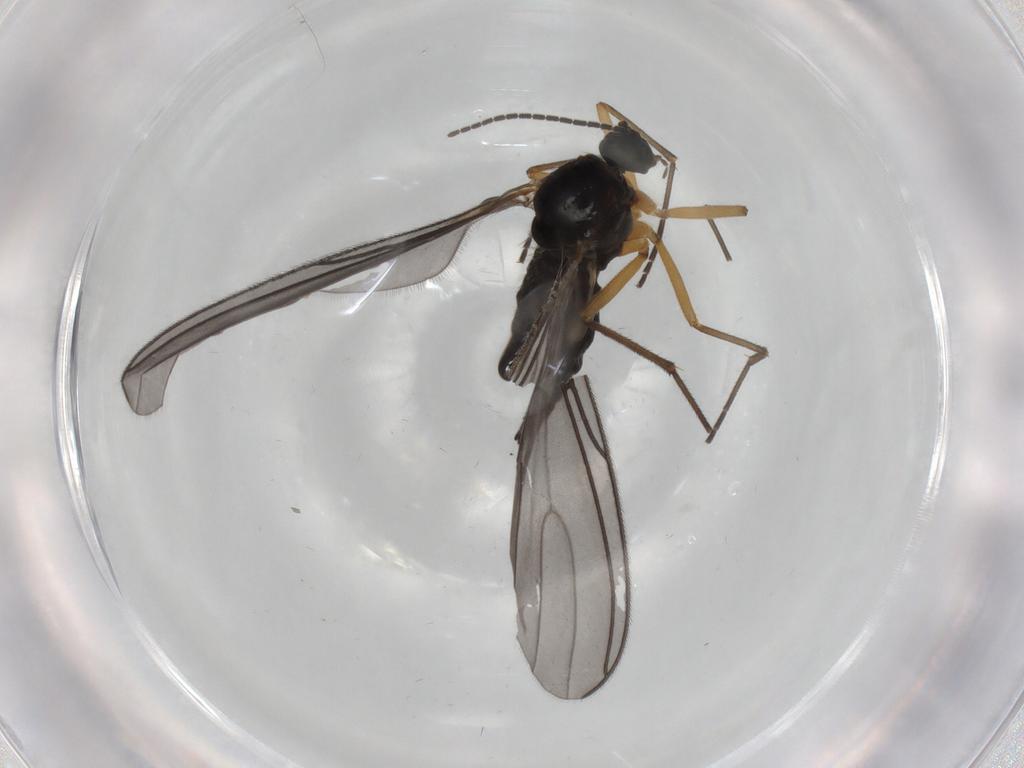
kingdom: Animalia
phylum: Arthropoda
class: Insecta
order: Diptera
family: Sciaridae
